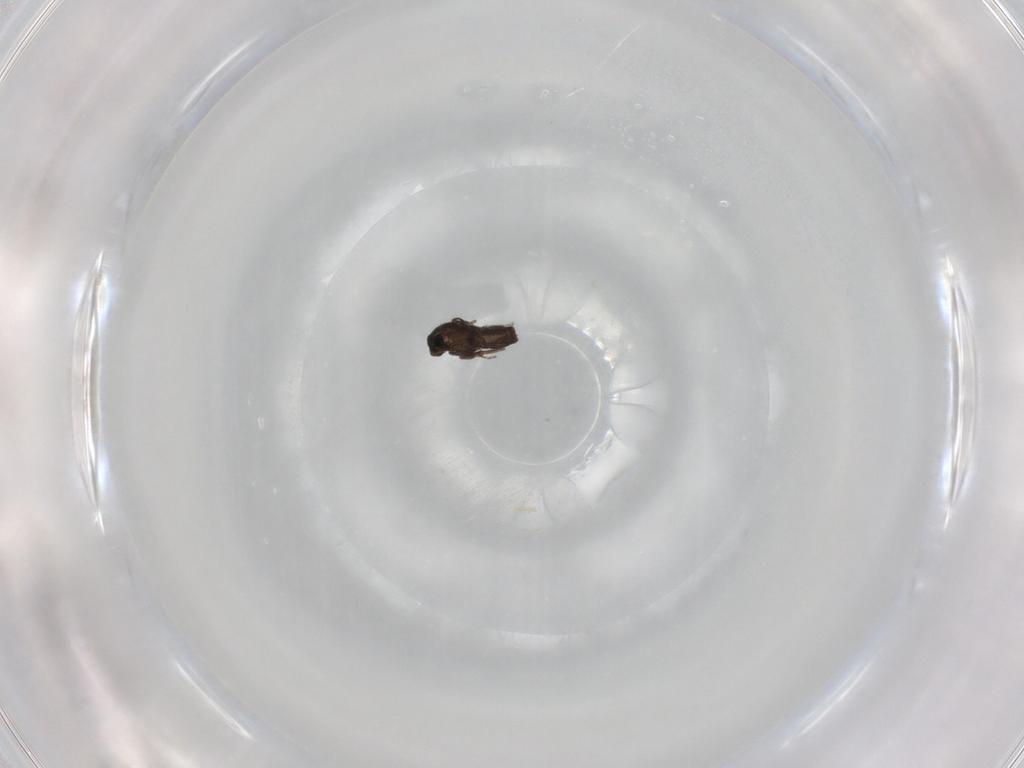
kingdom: Animalia
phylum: Arthropoda
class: Insecta
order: Diptera
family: Phoridae
